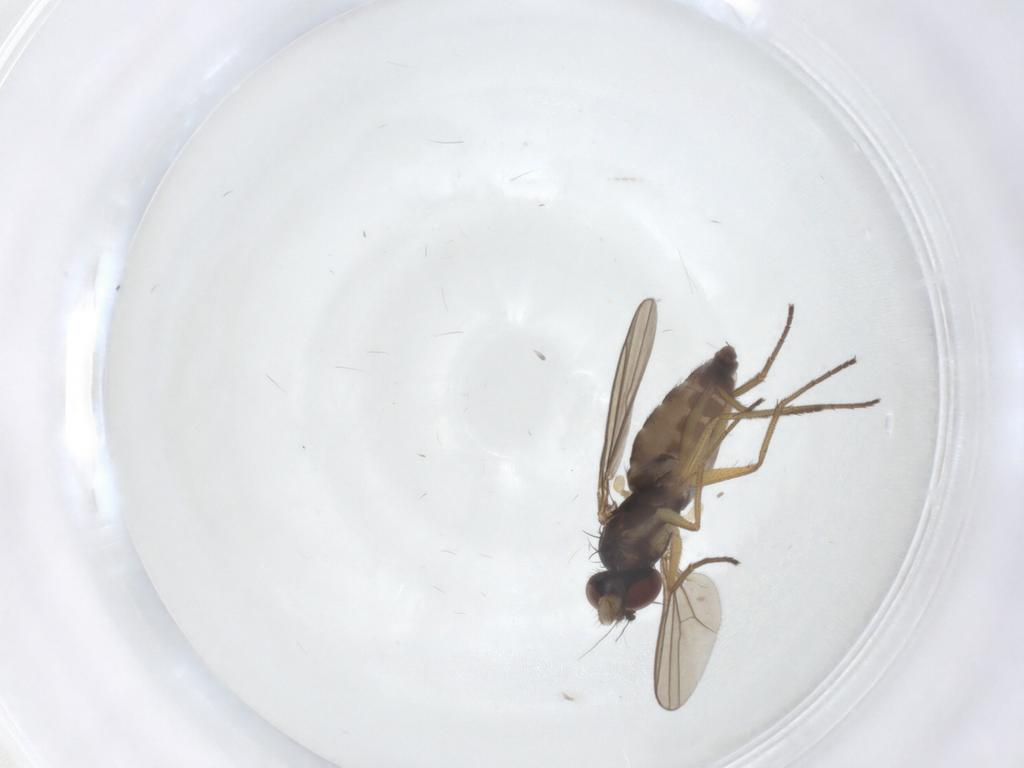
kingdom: Animalia
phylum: Arthropoda
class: Insecta
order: Diptera
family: Dolichopodidae
